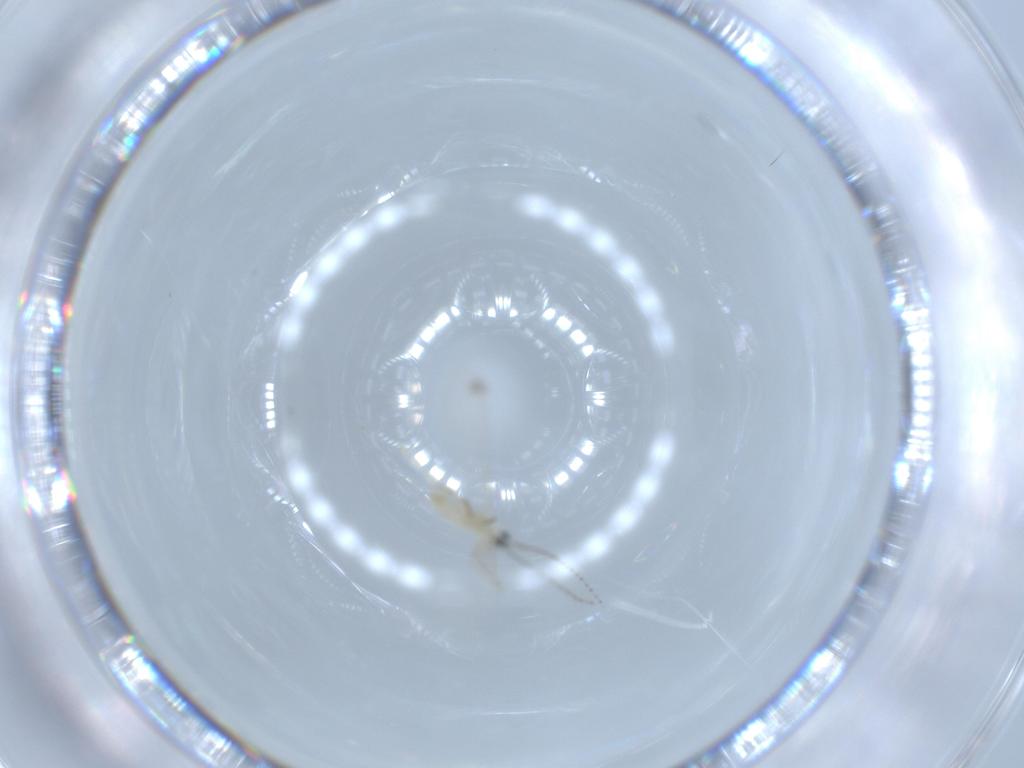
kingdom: Animalia
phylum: Arthropoda
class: Insecta
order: Diptera
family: Cecidomyiidae
